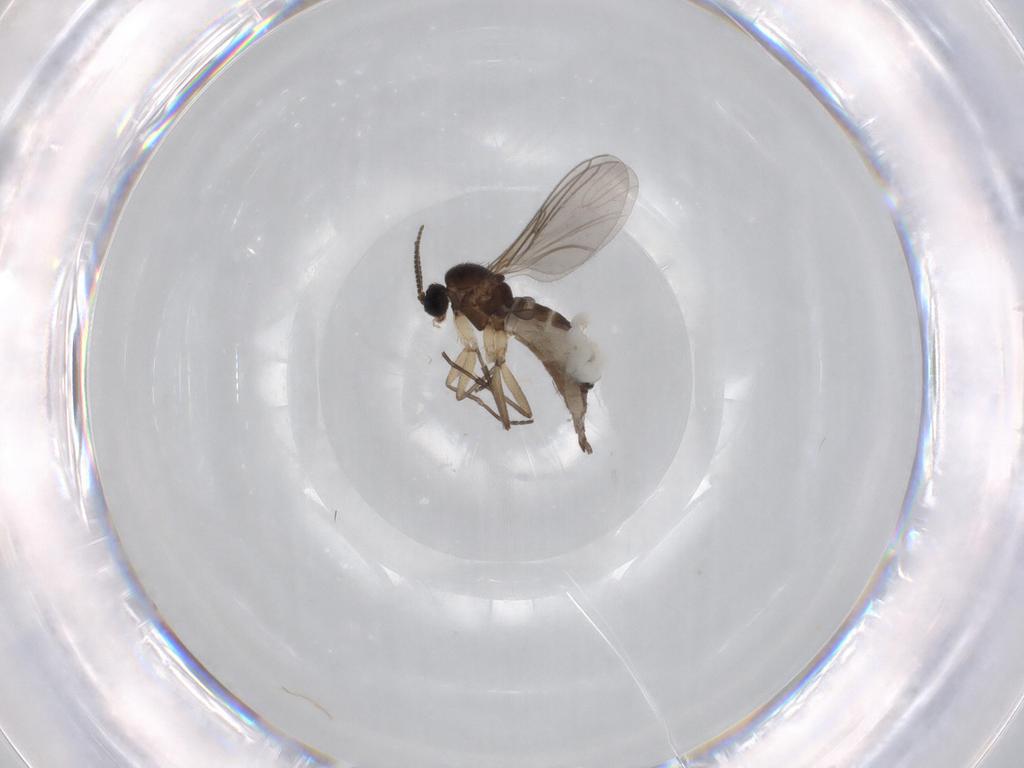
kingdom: Animalia
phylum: Arthropoda
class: Insecta
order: Diptera
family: Sciaridae
